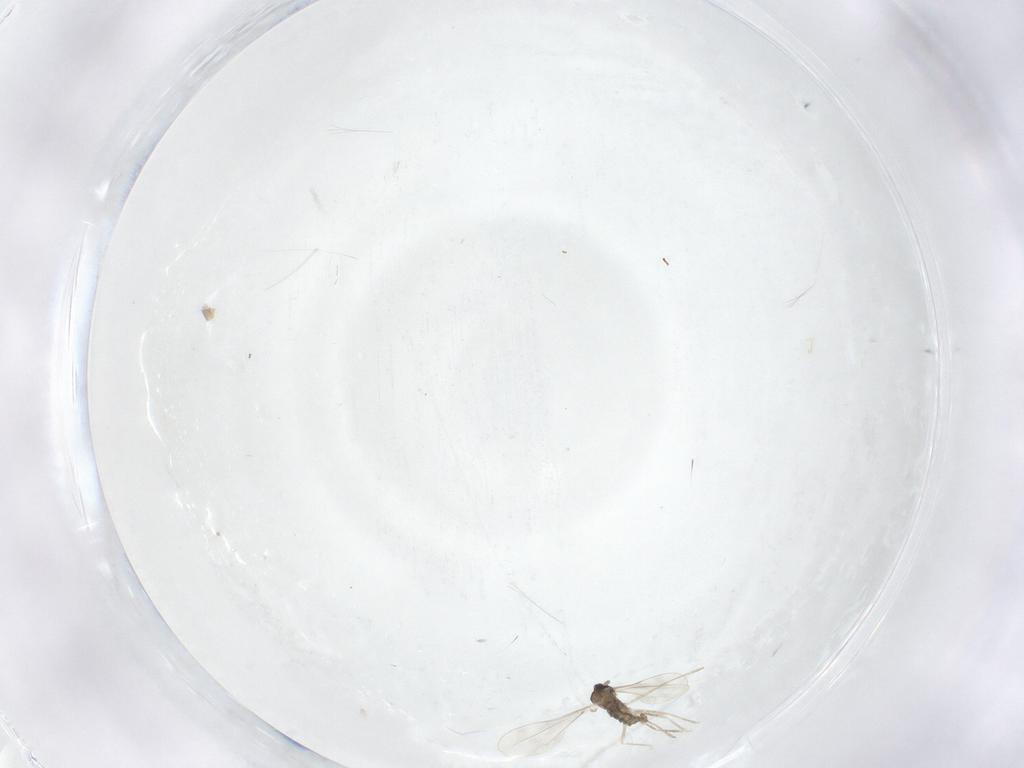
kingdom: Animalia
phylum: Arthropoda
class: Insecta
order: Diptera
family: Cecidomyiidae
